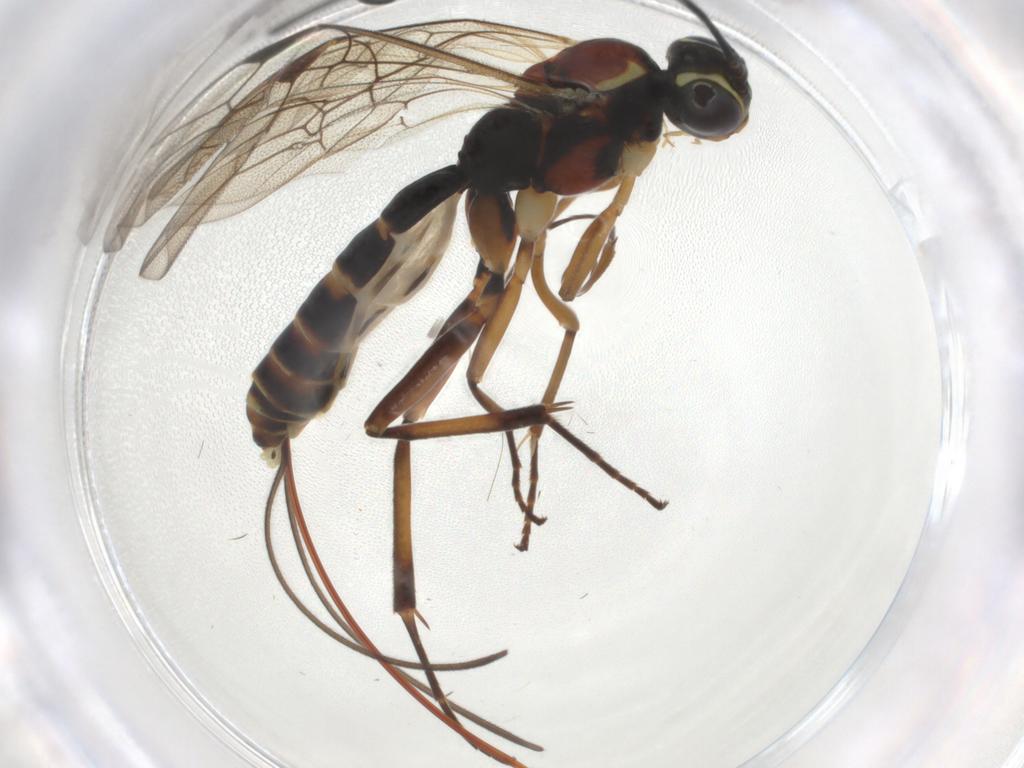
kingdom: Animalia
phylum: Arthropoda
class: Insecta
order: Hymenoptera
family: Ichneumonidae
